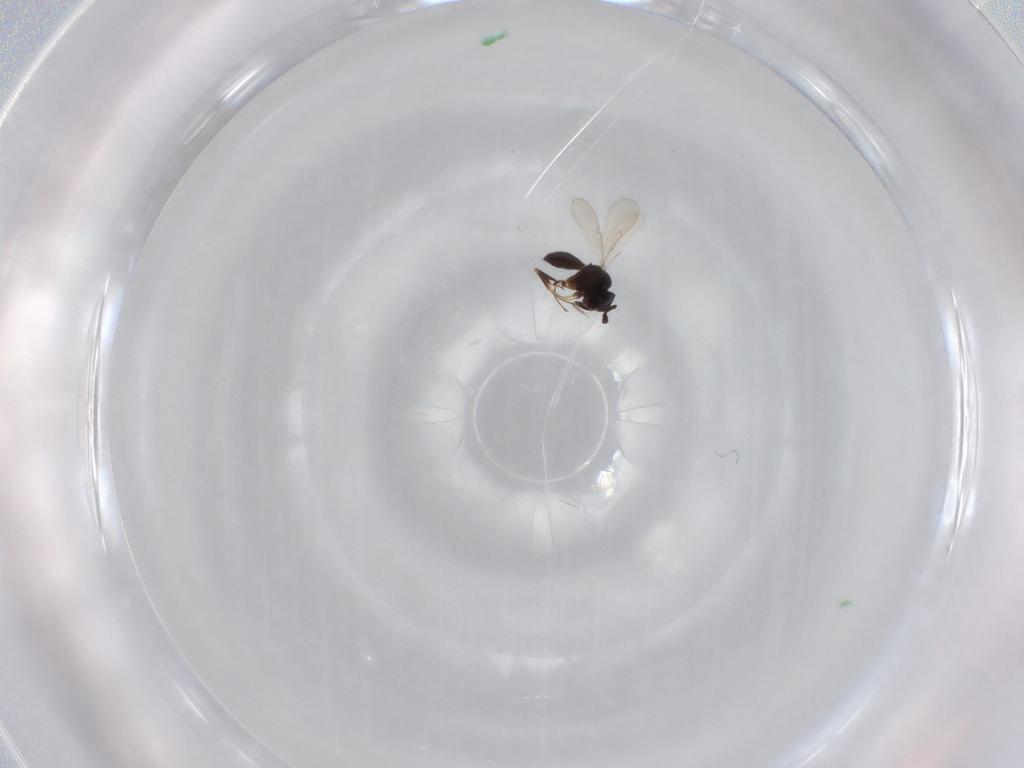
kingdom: Animalia
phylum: Arthropoda
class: Insecta
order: Hymenoptera
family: Scelionidae
